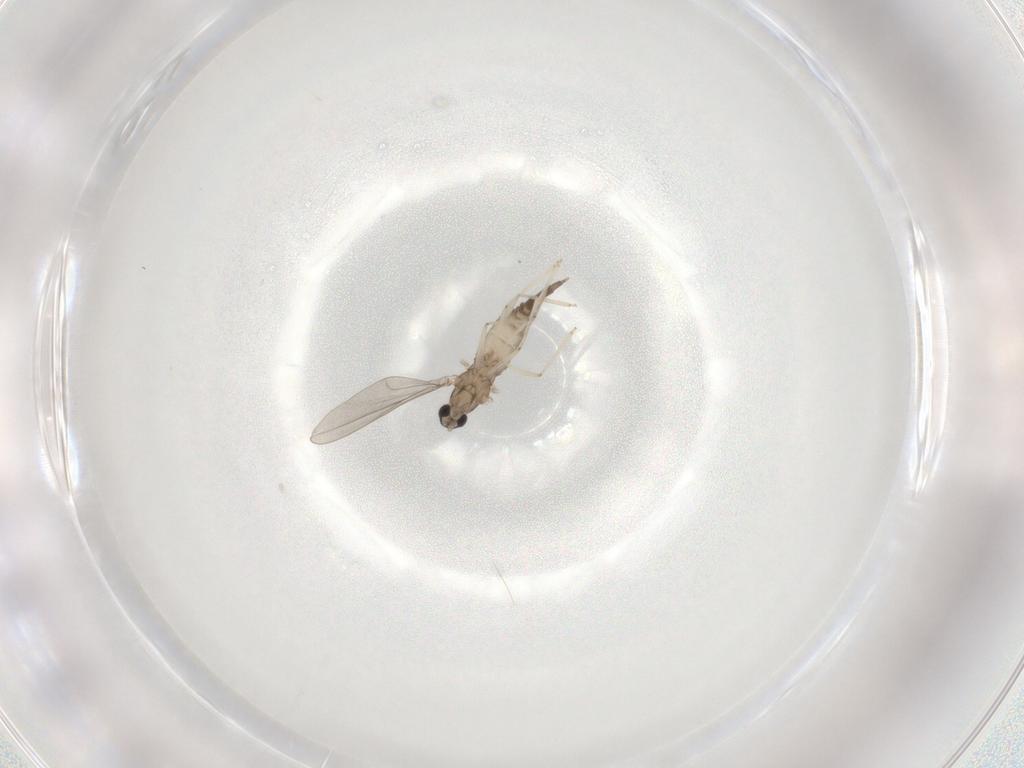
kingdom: Animalia
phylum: Arthropoda
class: Insecta
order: Diptera
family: Cecidomyiidae
